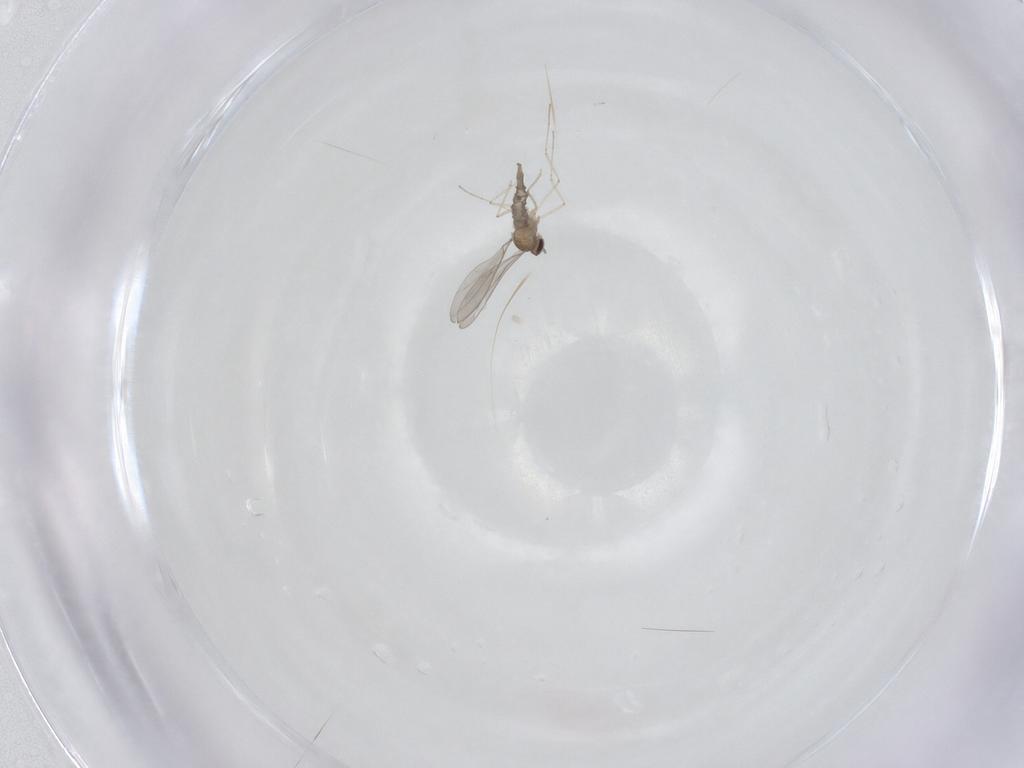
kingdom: Animalia
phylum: Arthropoda
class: Insecta
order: Diptera
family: Cecidomyiidae
